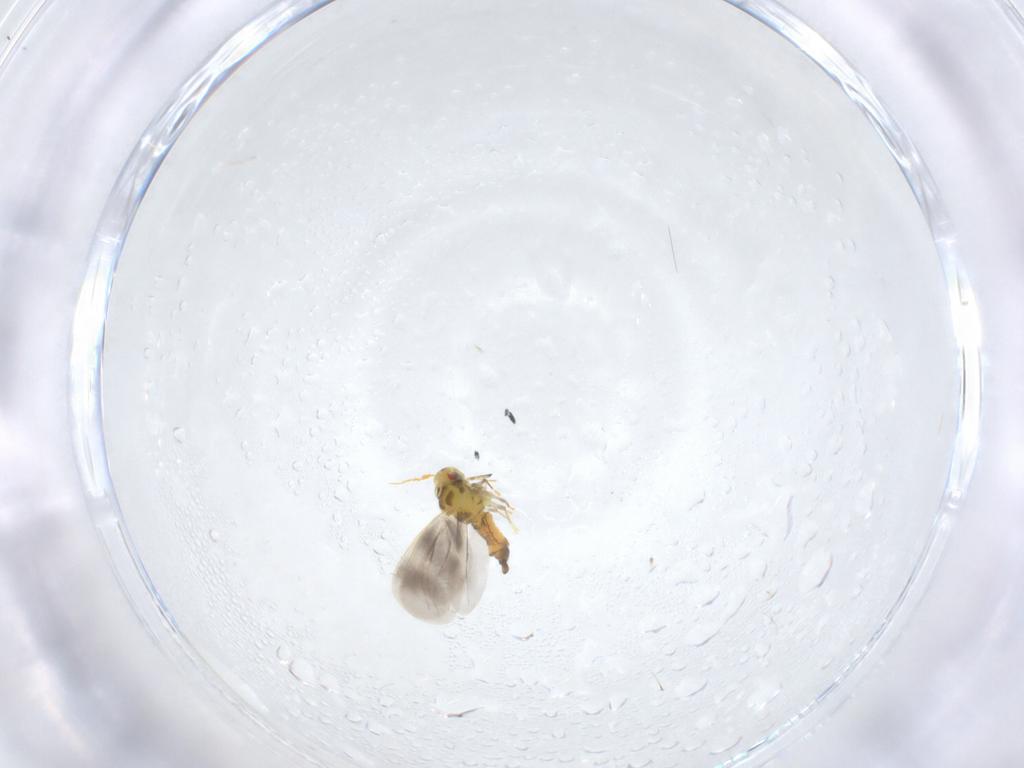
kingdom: Animalia
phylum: Arthropoda
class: Insecta
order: Hemiptera
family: Aleyrodidae
